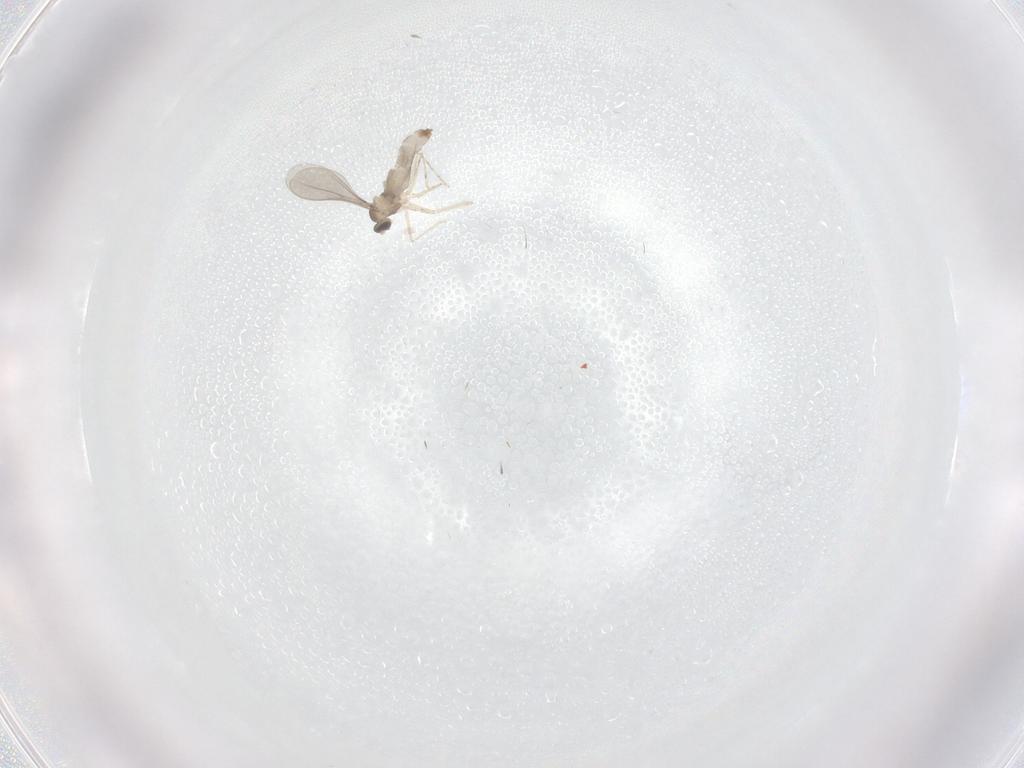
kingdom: Animalia
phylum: Arthropoda
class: Insecta
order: Diptera
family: Cecidomyiidae
